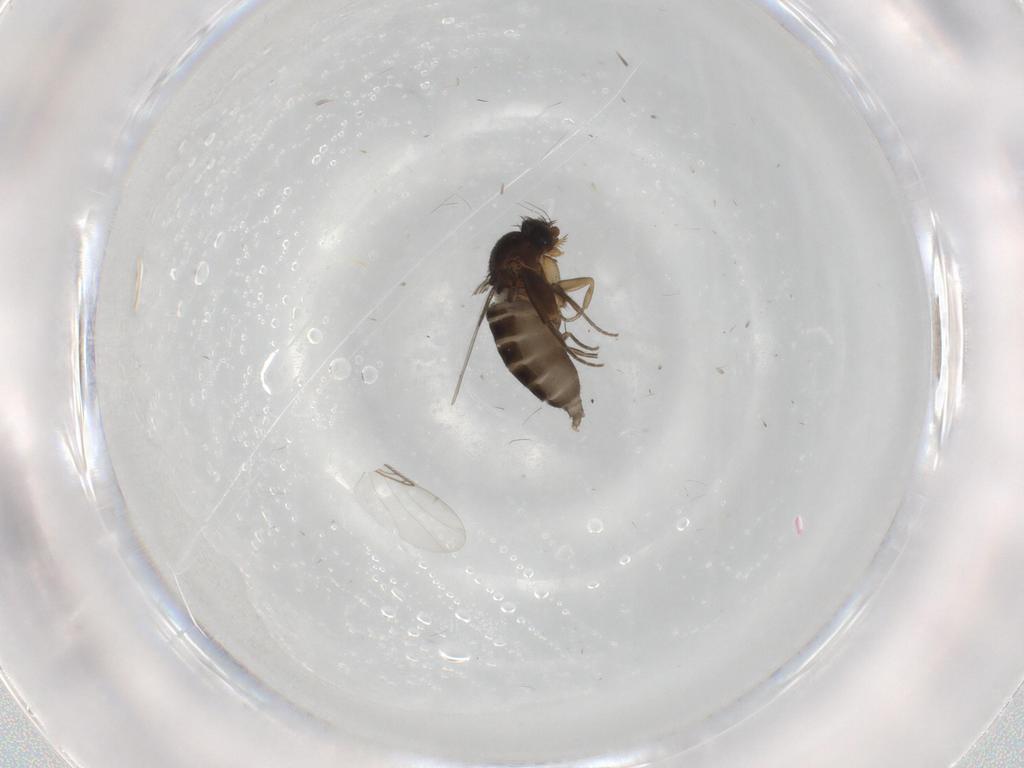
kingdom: Animalia
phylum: Arthropoda
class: Insecta
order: Diptera
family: Phoridae
